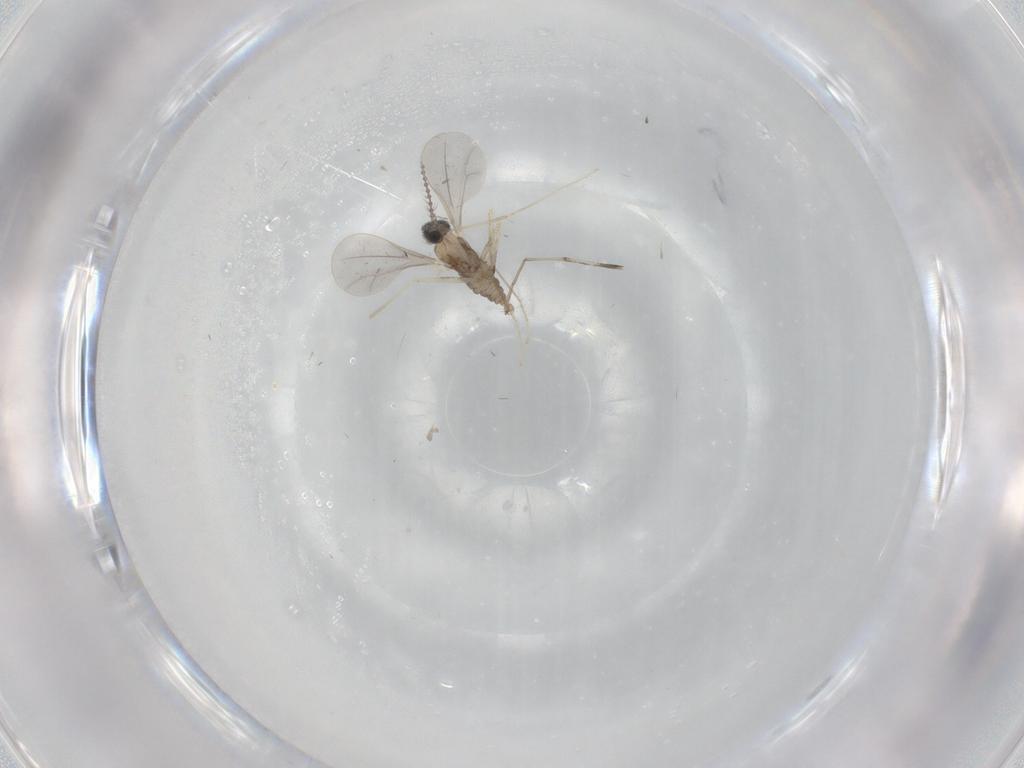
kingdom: Animalia
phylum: Arthropoda
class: Insecta
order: Diptera
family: Cecidomyiidae
